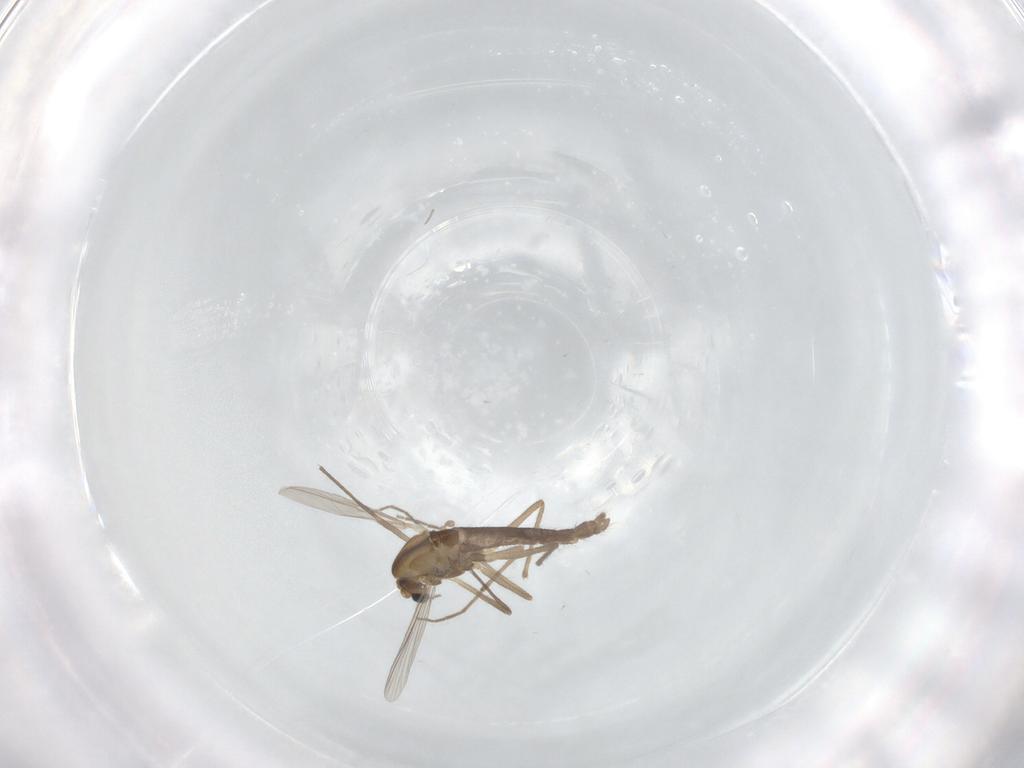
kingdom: Animalia
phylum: Arthropoda
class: Insecta
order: Diptera
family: Chironomidae
